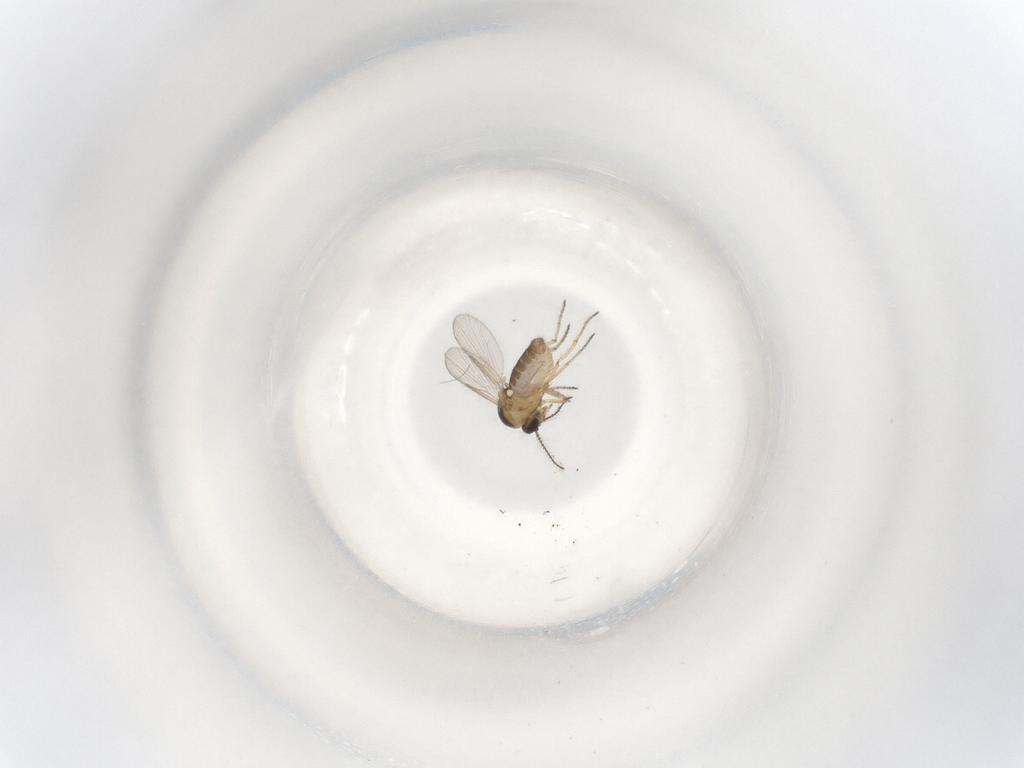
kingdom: Animalia
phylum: Arthropoda
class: Insecta
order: Diptera
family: Ceratopogonidae
